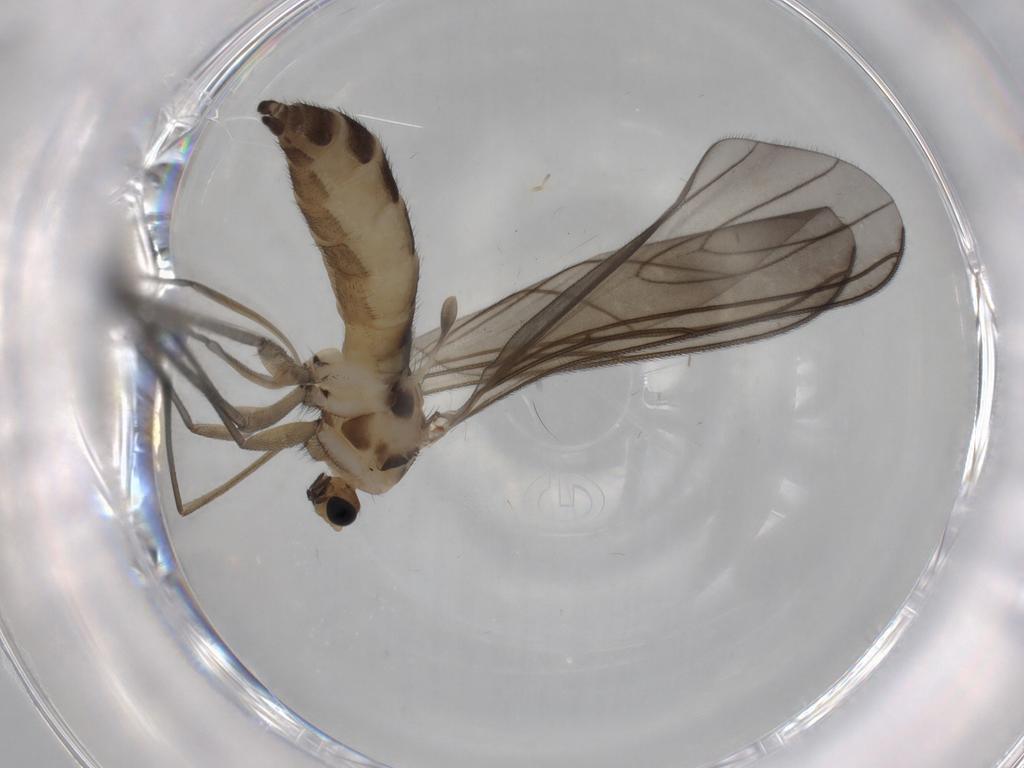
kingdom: Animalia
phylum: Arthropoda
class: Insecta
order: Diptera
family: Sciaridae
